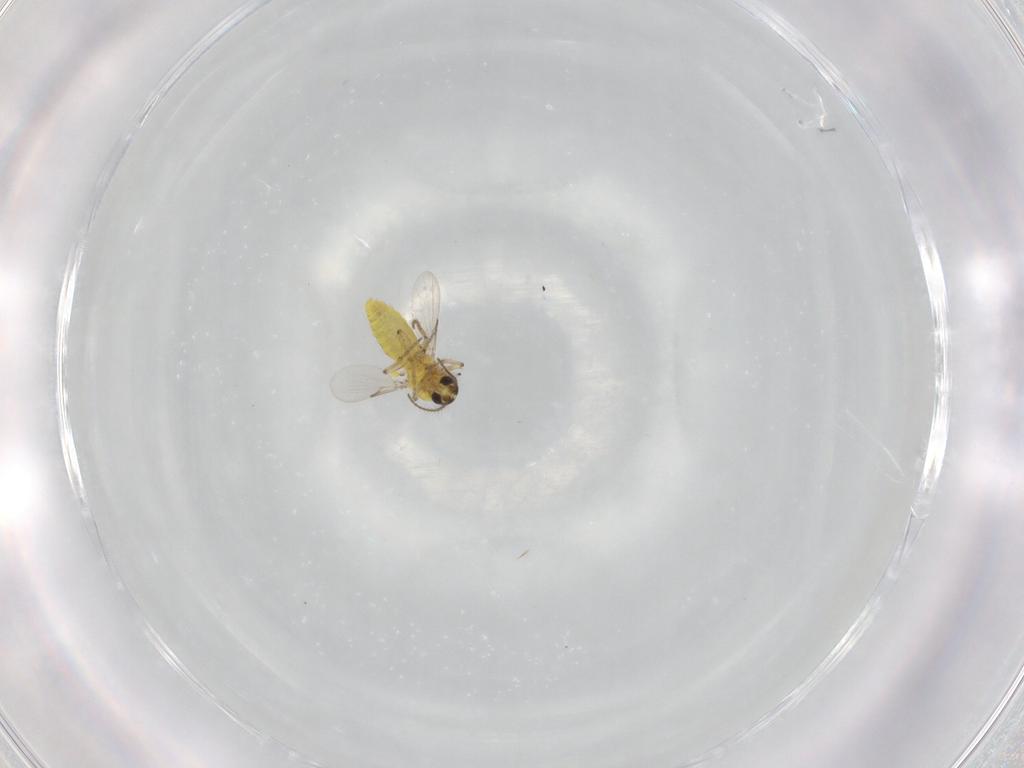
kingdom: Animalia
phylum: Arthropoda
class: Insecta
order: Diptera
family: Ceratopogonidae
